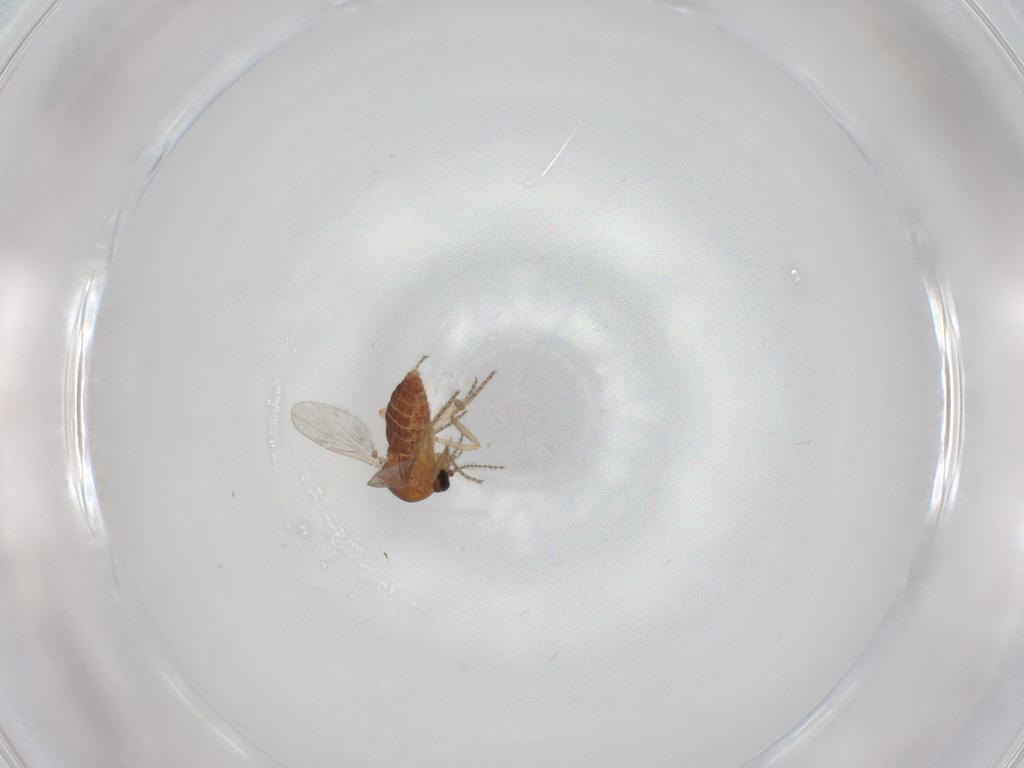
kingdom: Animalia
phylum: Arthropoda
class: Insecta
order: Diptera
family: Ceratopogonidae
